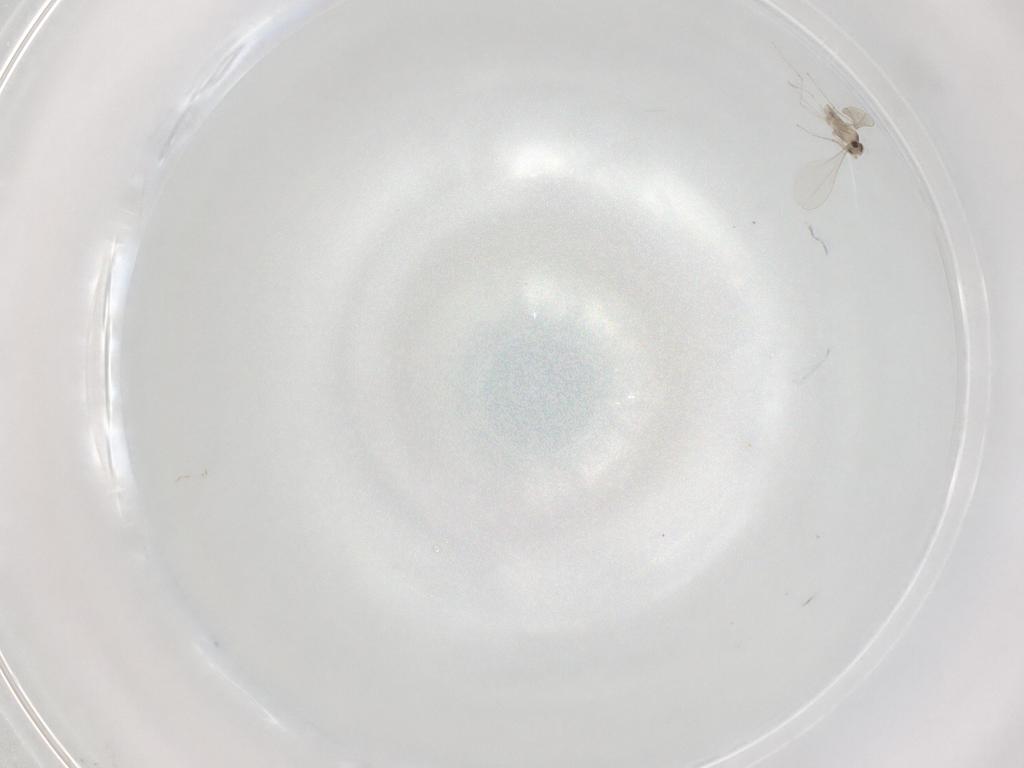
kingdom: Animalia
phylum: Arthropoda
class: Insecta
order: Diptera
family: Cecidomyiidae
